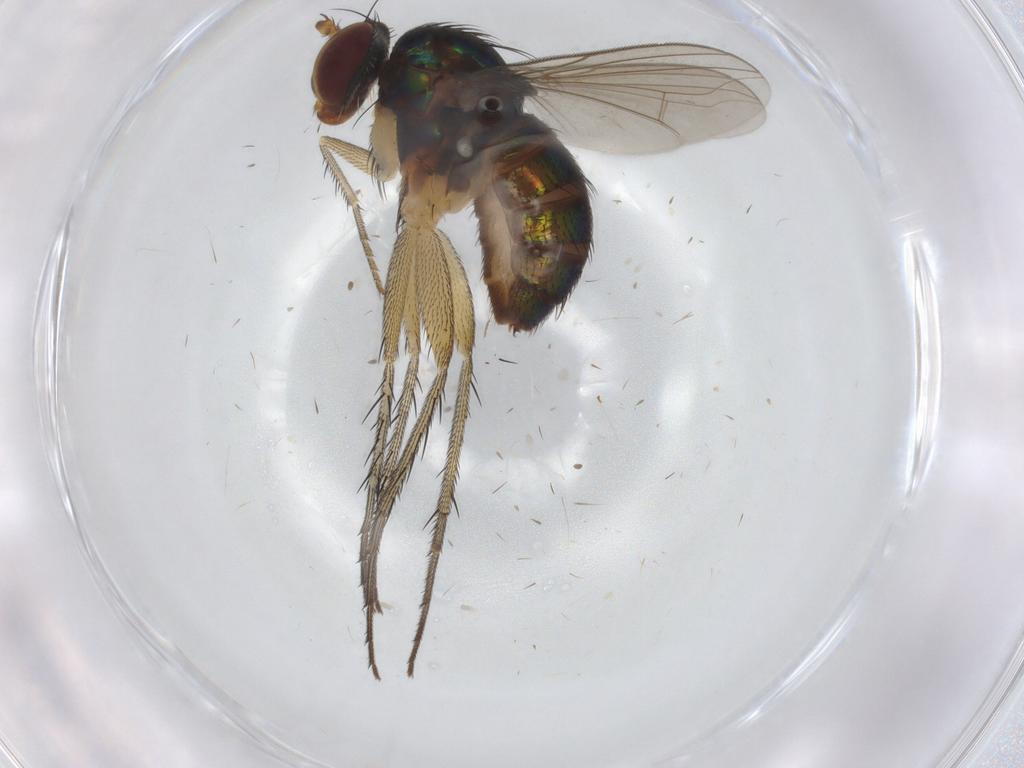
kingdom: Animalia
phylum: Arthropoda
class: Insecta
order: Diptera
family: Dolichopodidae
